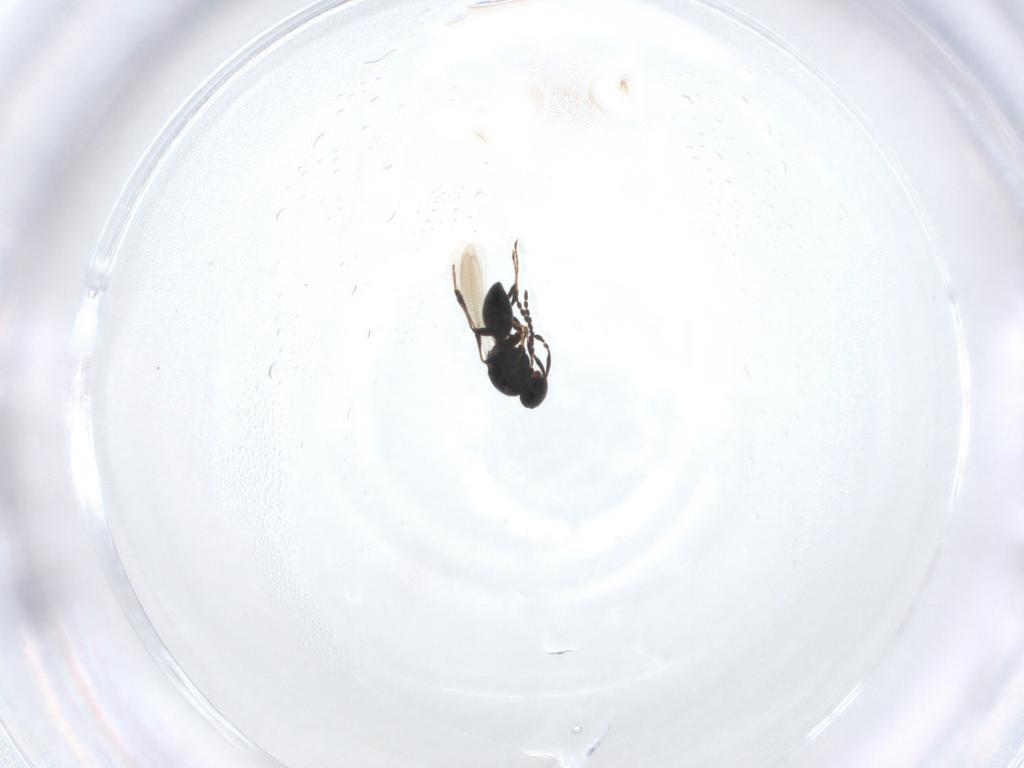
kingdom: Animalia
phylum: Arthropoda
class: Insecta
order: Hymenoptera
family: Platygastridae
